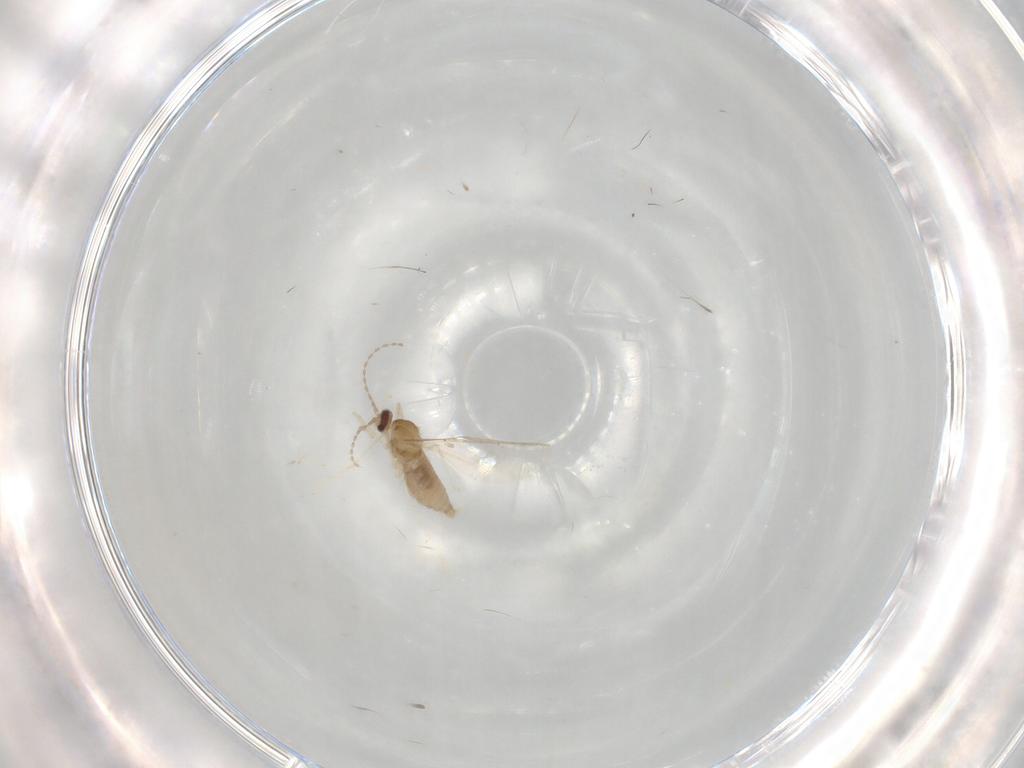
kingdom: Animalia
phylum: Arthropoda
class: Insecta
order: Diptera
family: Cecidomyiidae
